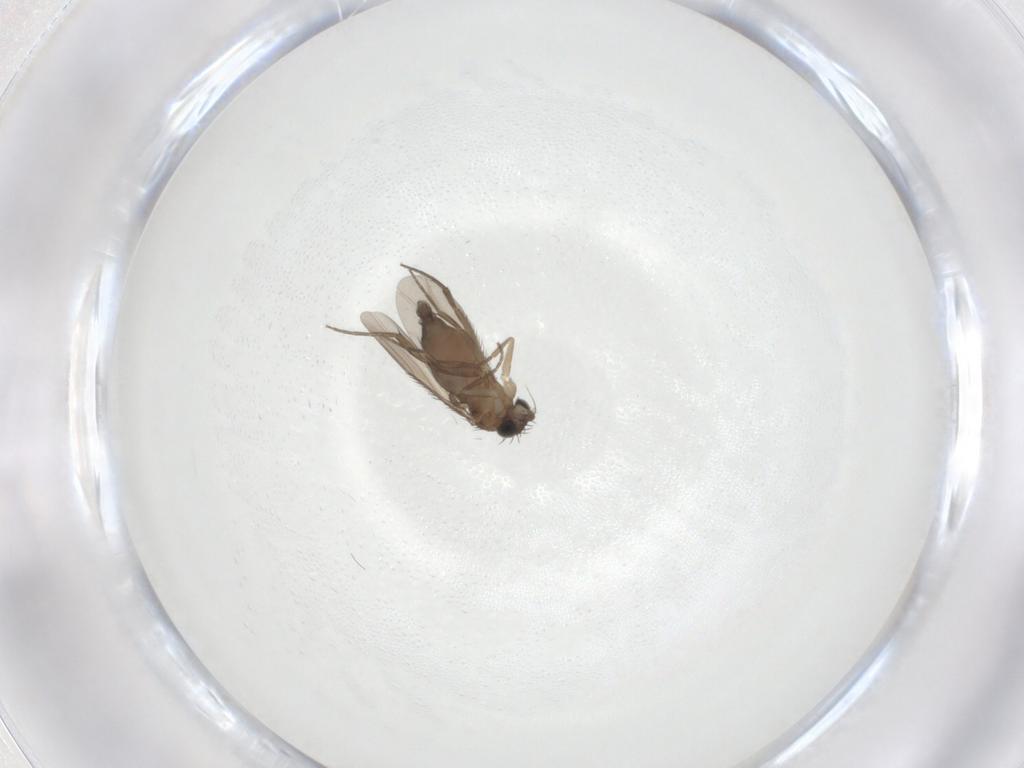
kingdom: Animalia
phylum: Arthropoda
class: Insecta
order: Diptera
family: Phoridae
